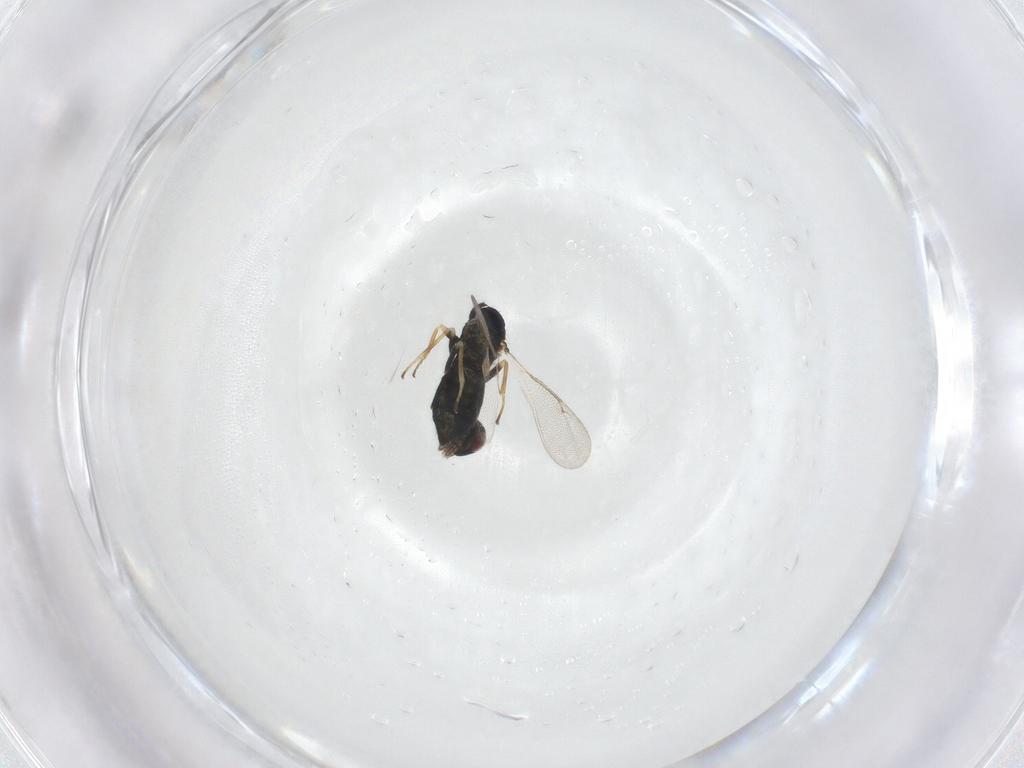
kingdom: Animalia
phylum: Arthropoda
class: Insecta
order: Hymenoptera
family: Eulophidae
